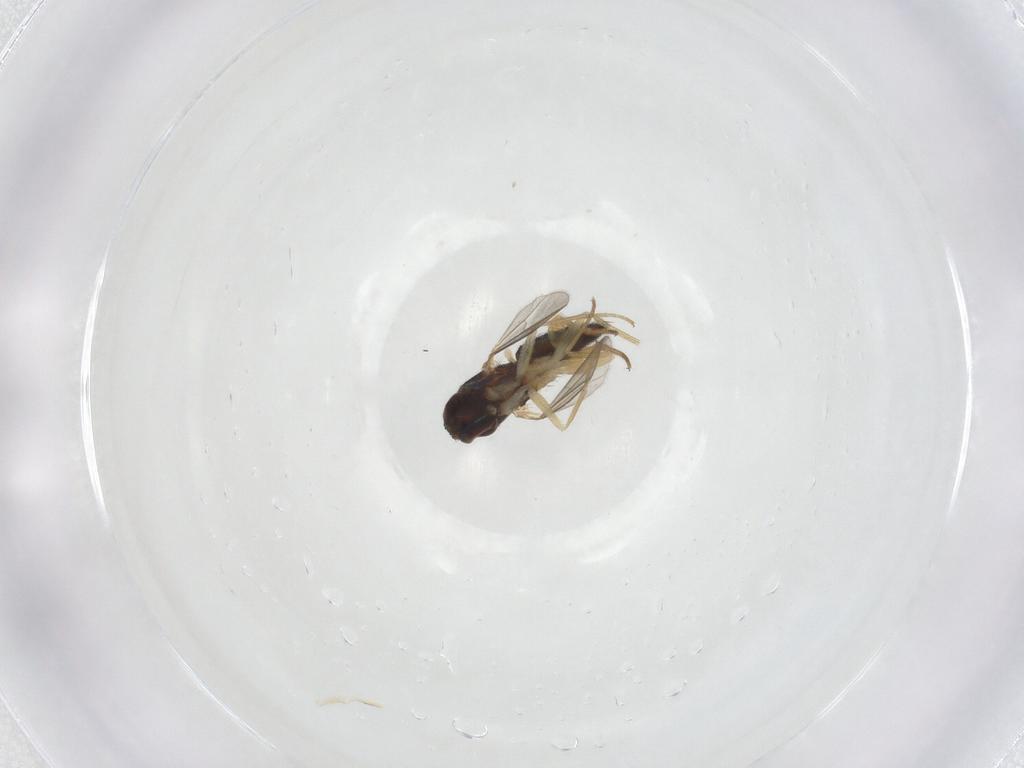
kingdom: Animalia
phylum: Arthropoda
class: Insecta
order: Diptera
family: Dolichopodidae
